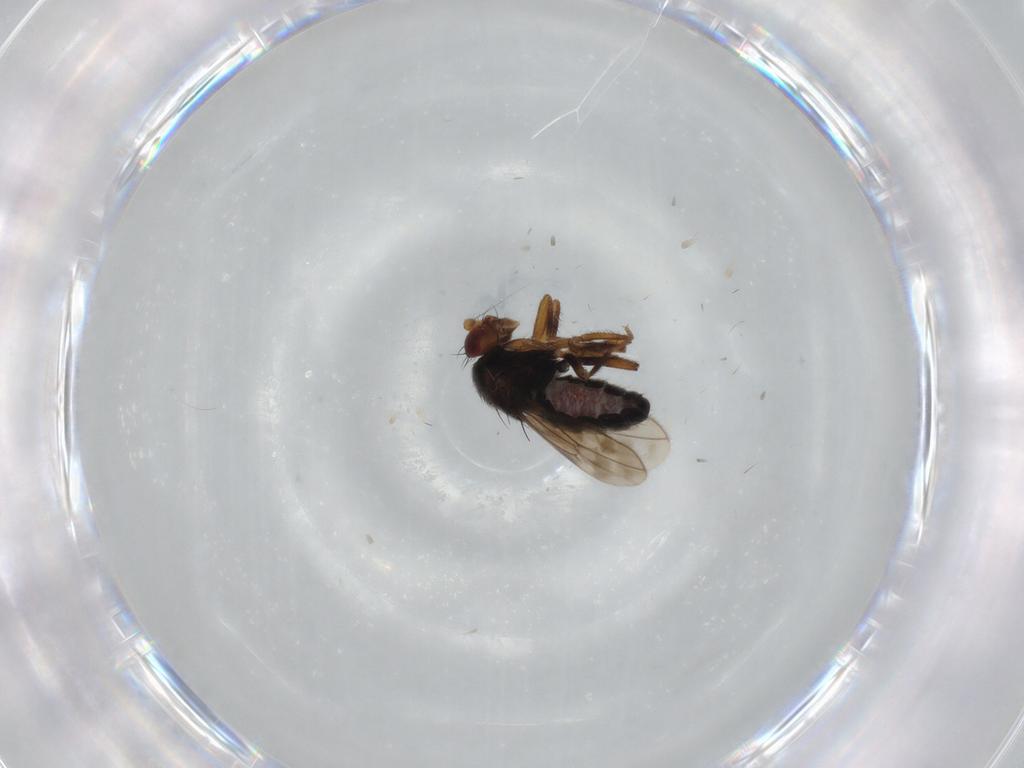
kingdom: Animalia
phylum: Arthropoda
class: Insecta
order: Diptera
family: Sphaeroceridae
